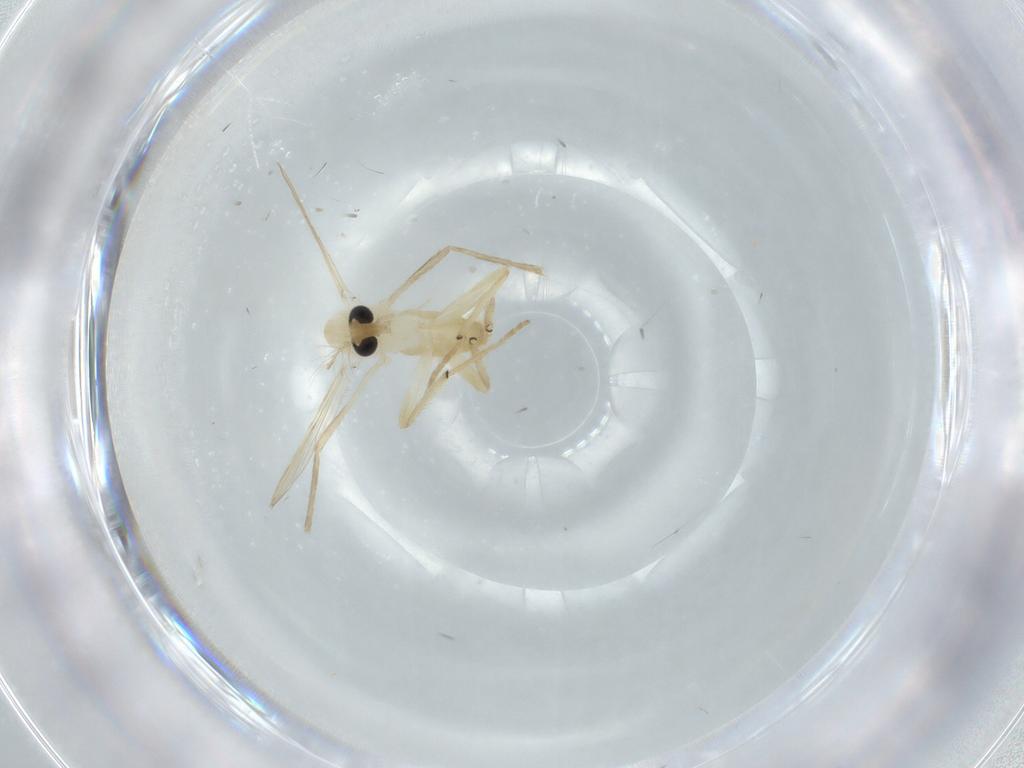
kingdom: Animalia
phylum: Arthropoda
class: Insecta
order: Diptera
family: Chironomidae
